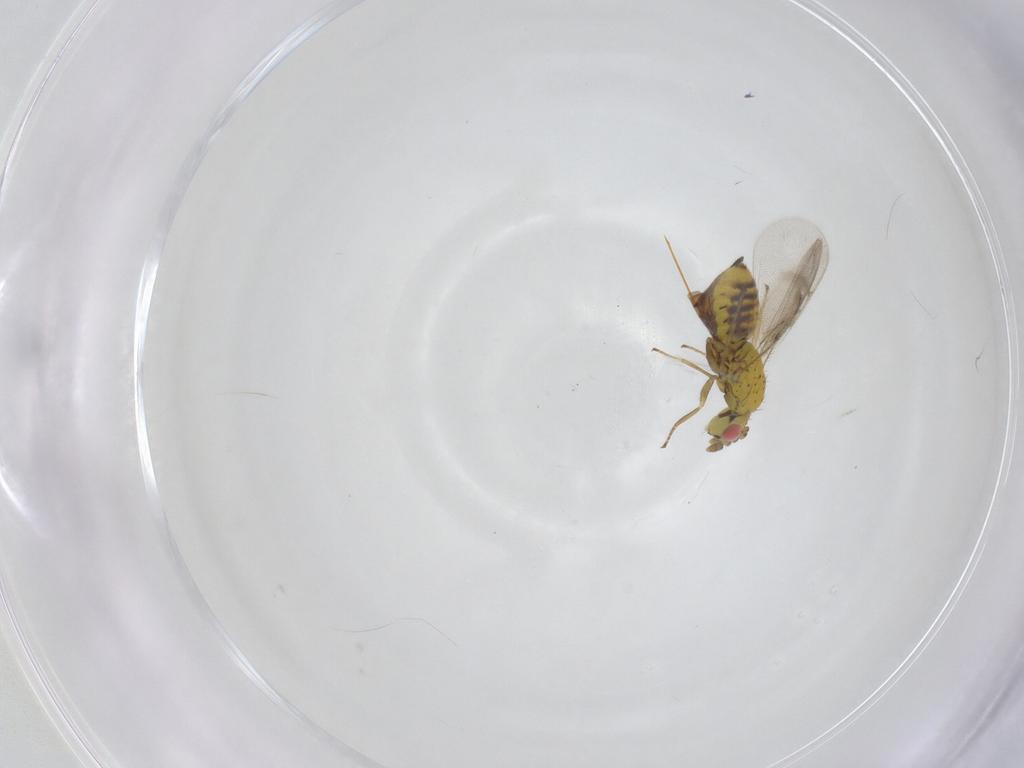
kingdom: Animalia
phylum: Arthropoda
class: Insecta
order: Hymenoptera
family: Eulophidae
